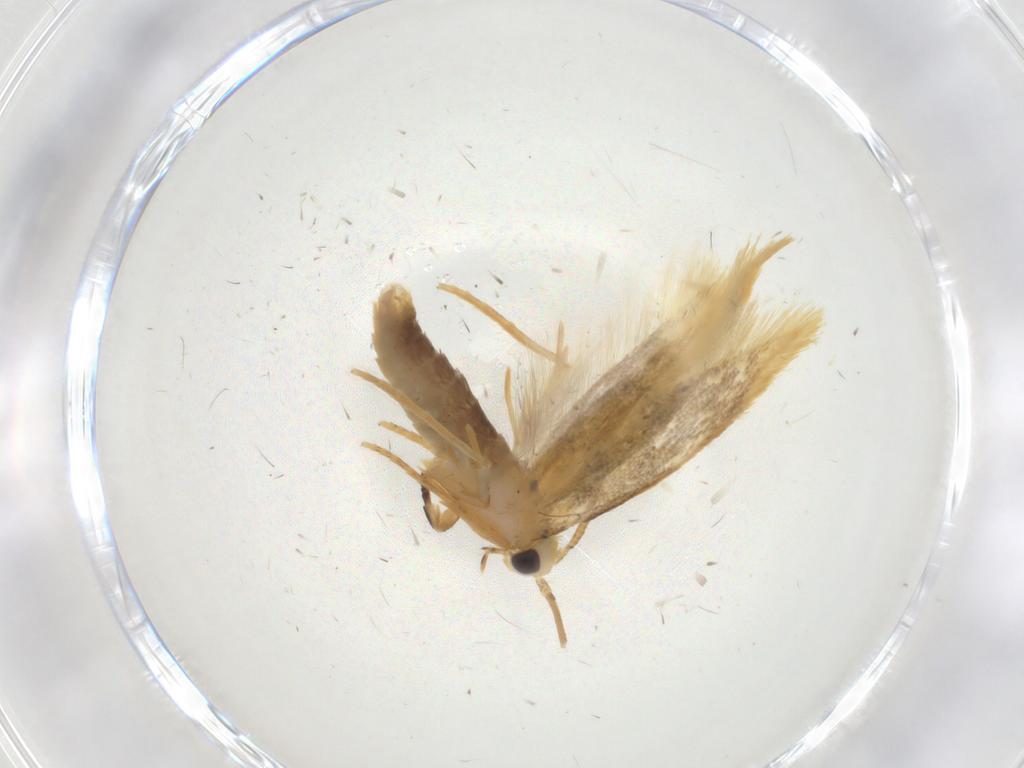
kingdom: Animalia
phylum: Arthropoda
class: Insecta
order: Lepidoptera
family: Nepticulidae
